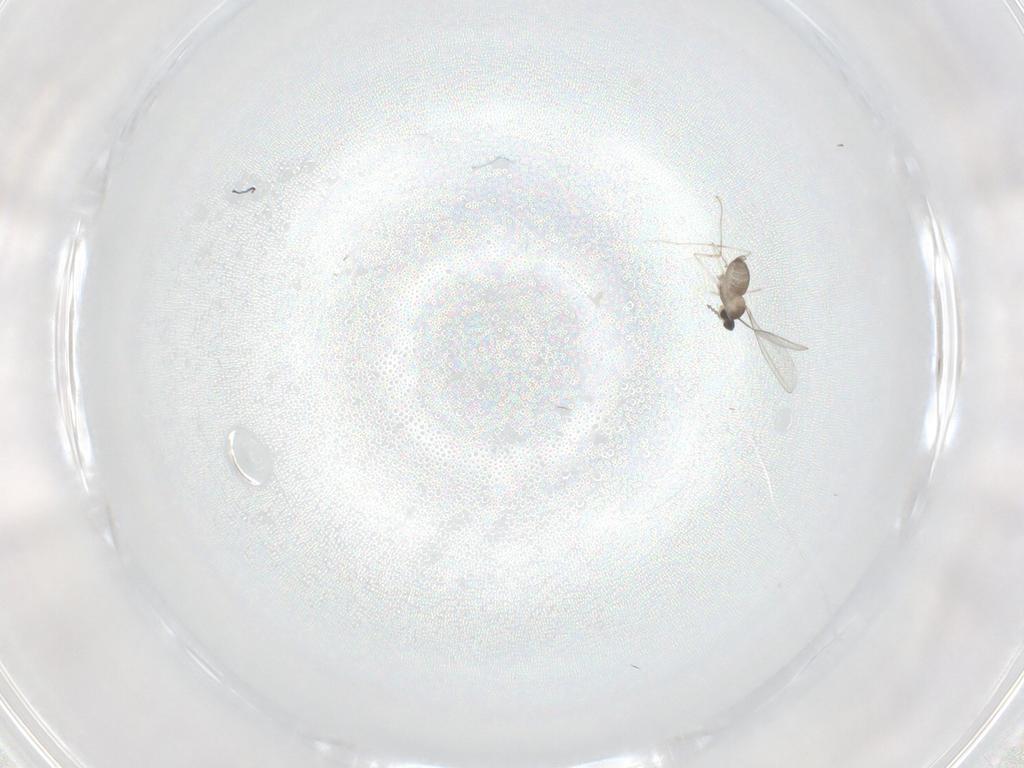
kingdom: Animalia
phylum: Arthropoda
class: Insecta
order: Diptera
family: Cecidomyiidae
